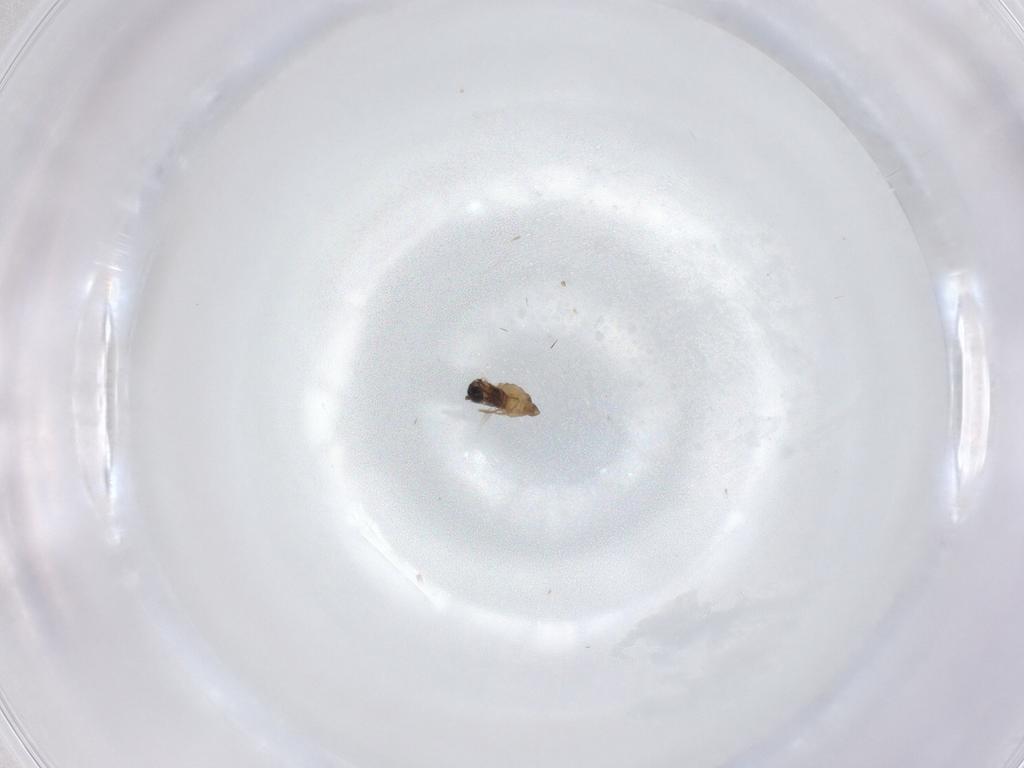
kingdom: Animalia
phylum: Arthropoda
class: Insecta
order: Diptera
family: Cecidomyiidae
